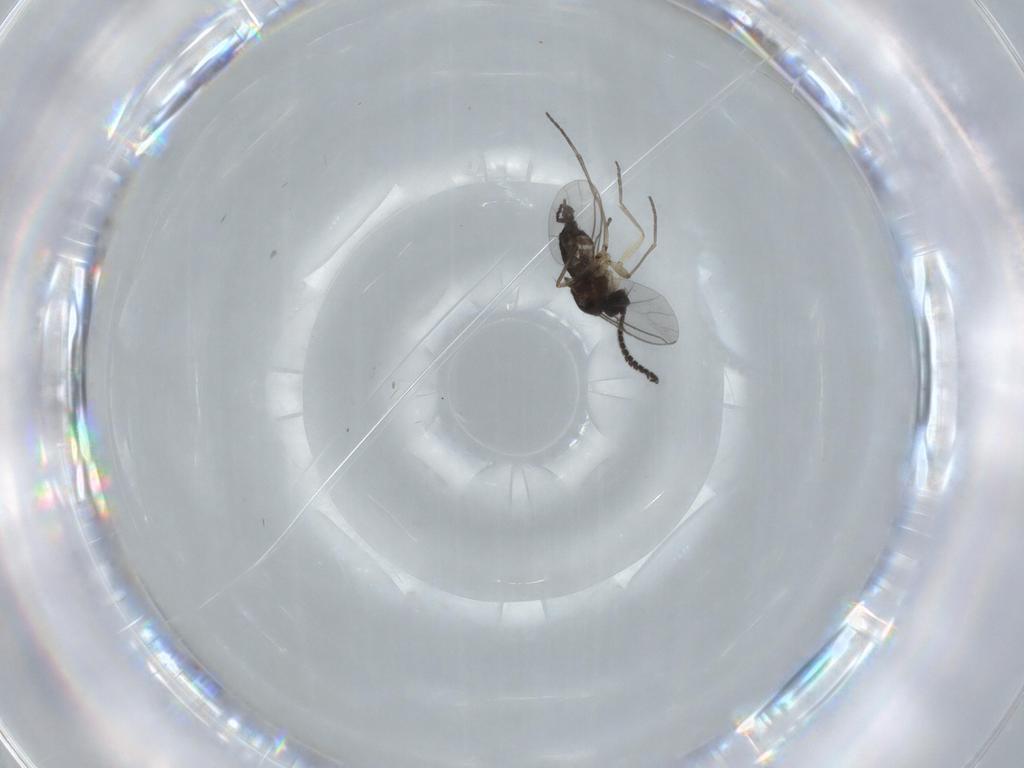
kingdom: Animalia
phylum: Arthropoda
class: Insecta
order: Diptera
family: Sciaridae
